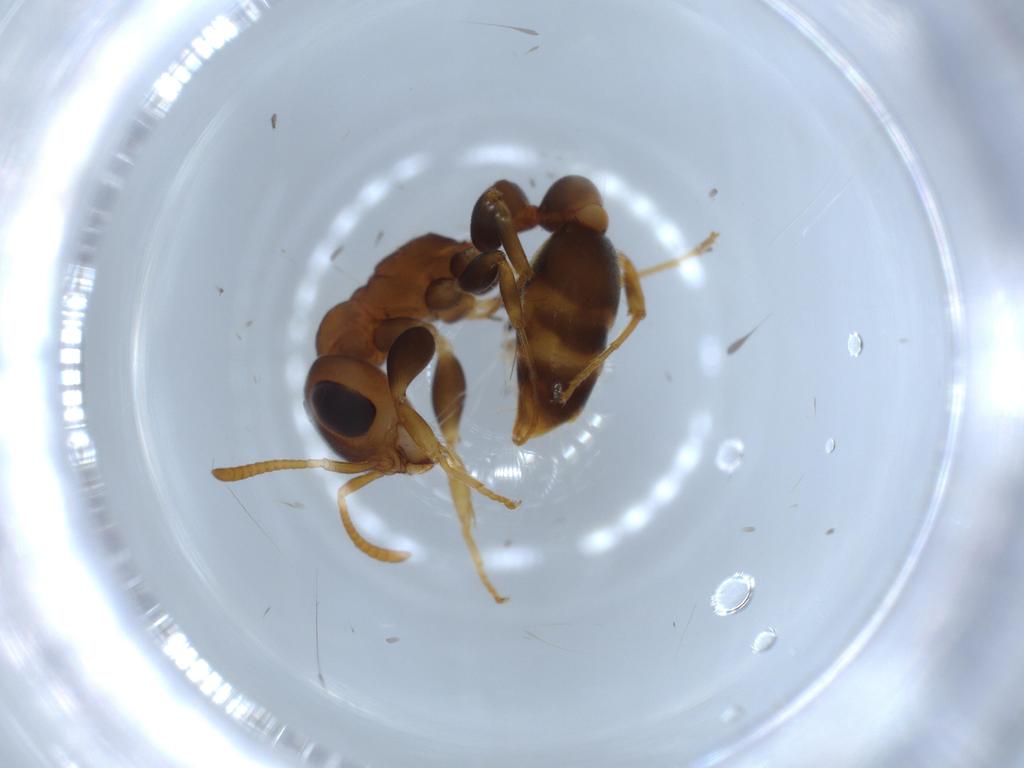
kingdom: Animalia
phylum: Arthropoda
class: Insecta
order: Hymenoptera
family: Formicidae
